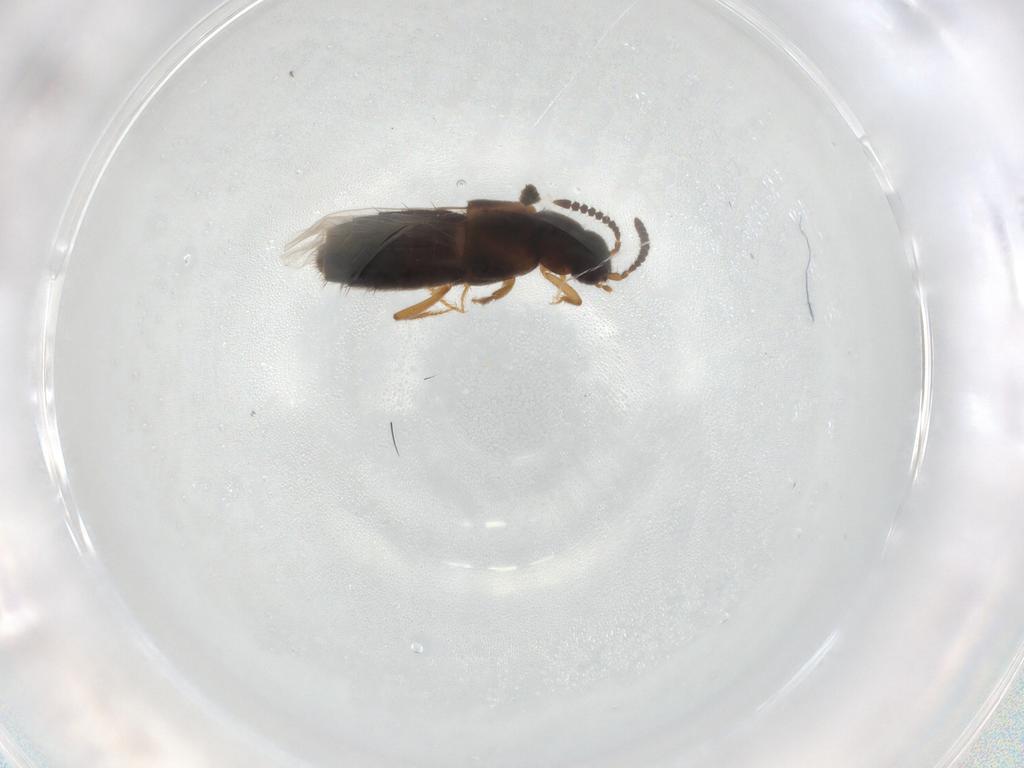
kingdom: Animalia
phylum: Arthropoda
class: Insecta
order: Coleoptera
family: Staphylinidae
